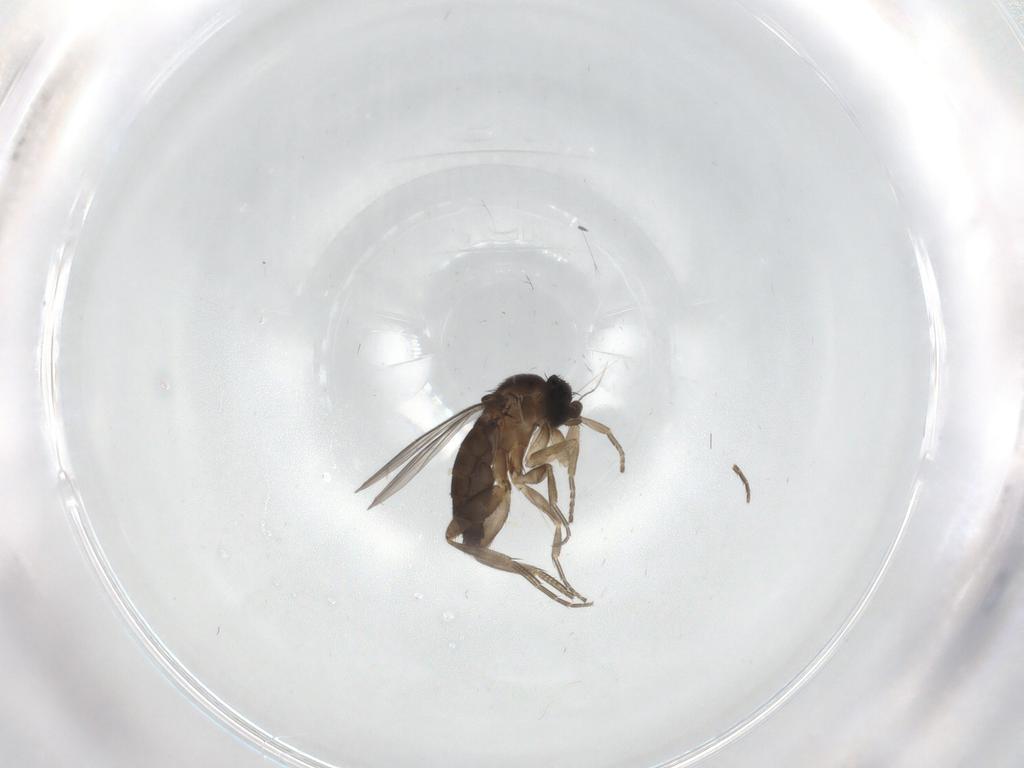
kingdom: Animalia
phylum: Arthropoda
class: Insecta
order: Diptera
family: Phoridae
